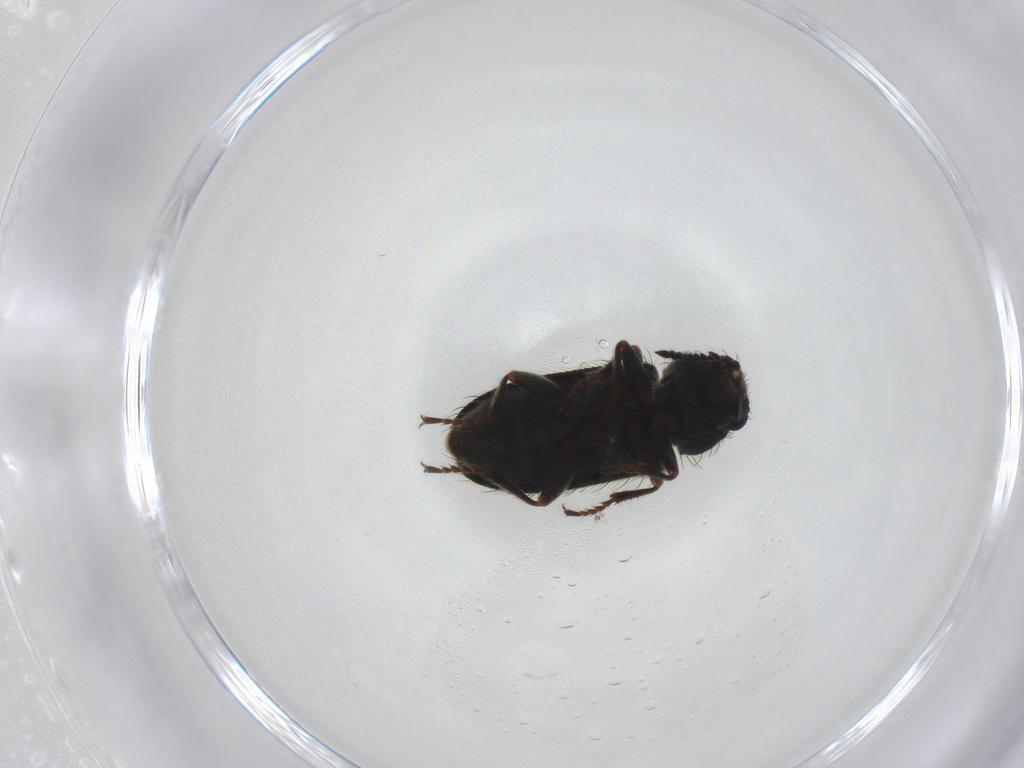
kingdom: Animalia
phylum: Arthropoda
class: Insecta
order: Coleoptera
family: Melyridae
